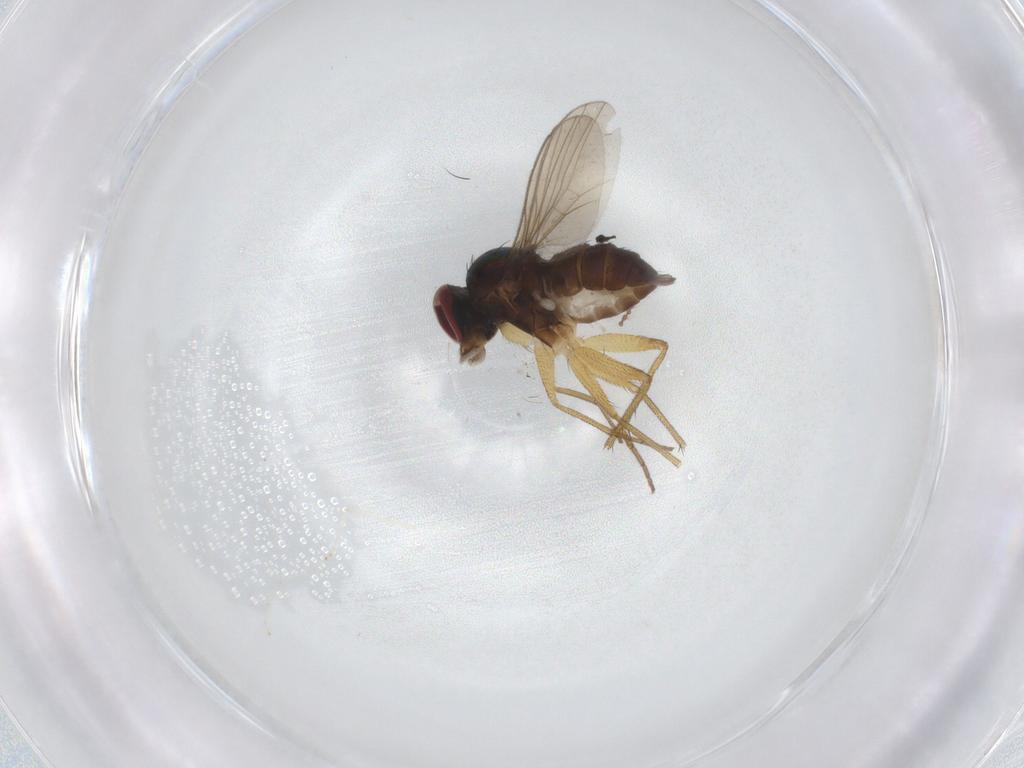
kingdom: Animalia
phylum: Arthropoda
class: Insecta
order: Diptera
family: Dolichopodidae
